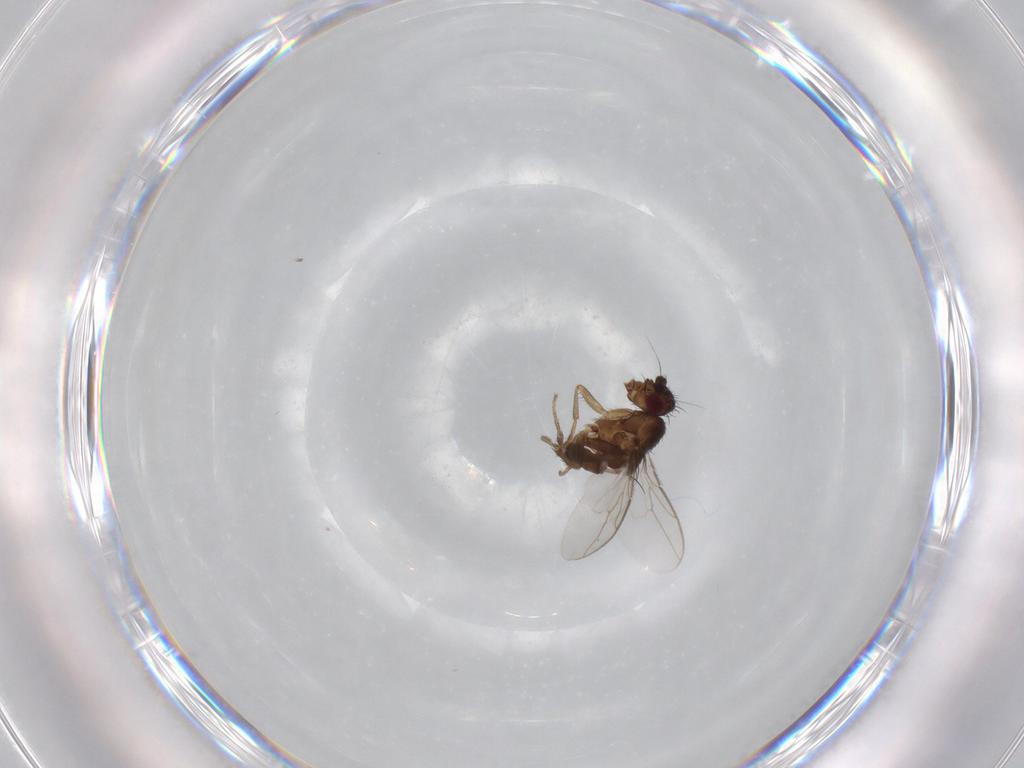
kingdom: Animalia
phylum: Arthropoda
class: Insecta
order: Diptera
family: Sphaeroceridae
